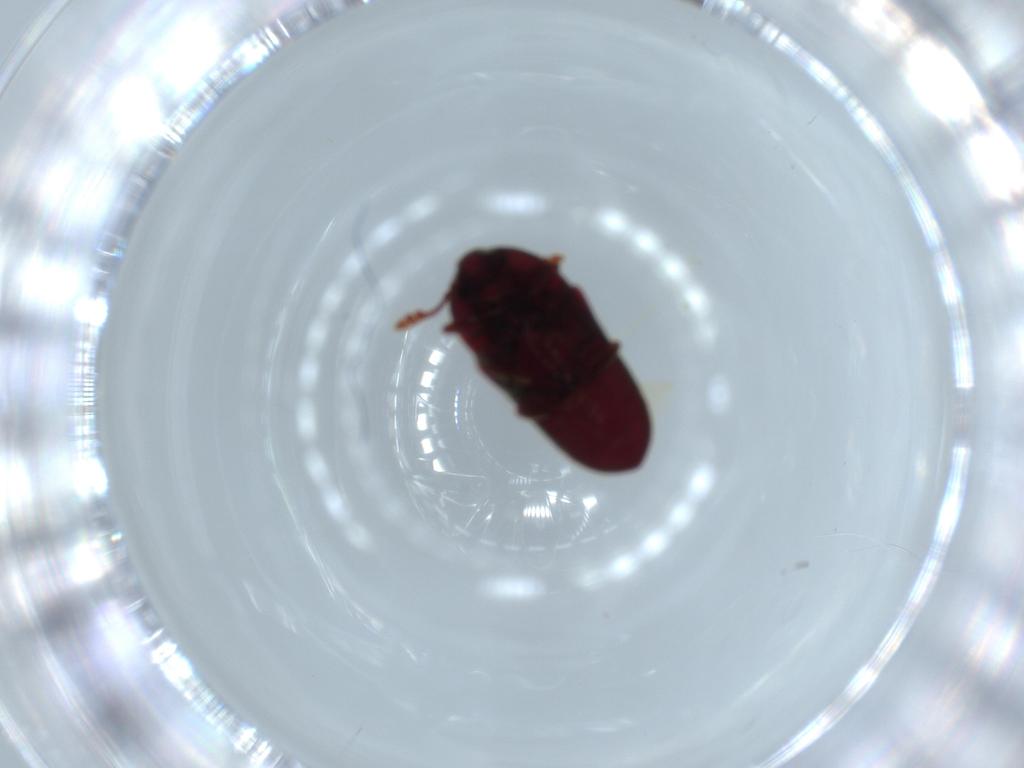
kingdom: Animalia
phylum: Arthropoda
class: Insecta
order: Coleoptera
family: Throscidae
